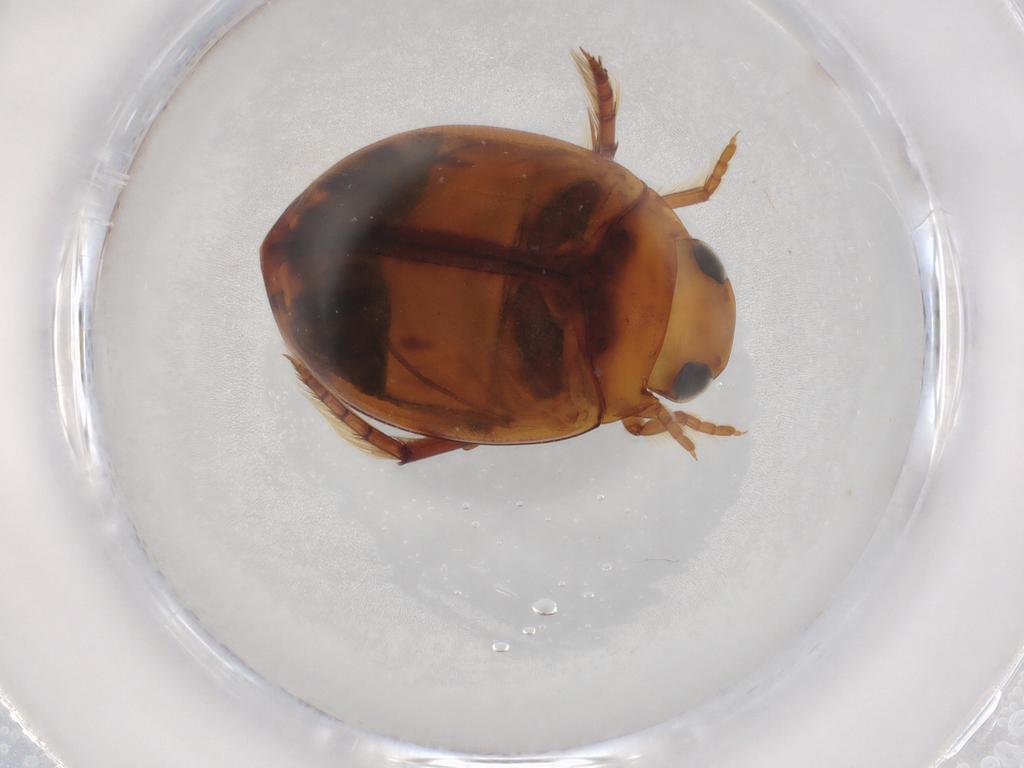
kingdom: Animalia
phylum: Arthropoda
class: Insecta
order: Coleoptera
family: Dytiscidae
